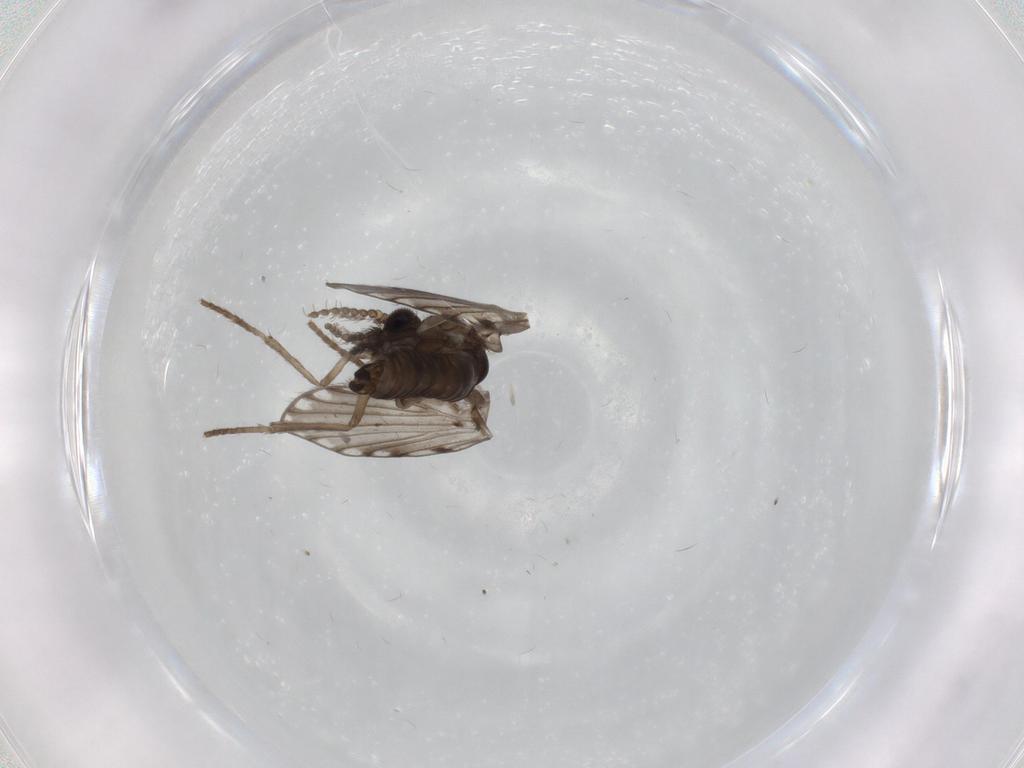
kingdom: Animalia
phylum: Arthropoda
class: Insecta
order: Diptera
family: Psychodidae
